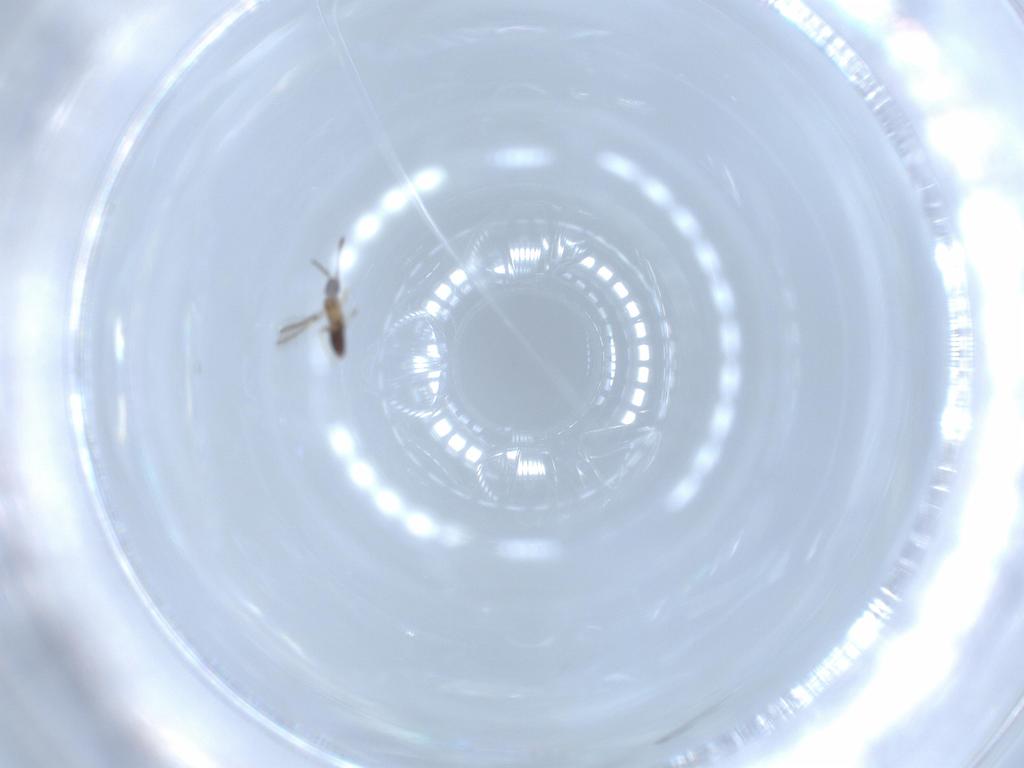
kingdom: Animalia
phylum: Arthropoda
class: Insecta
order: Hymenoptera
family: Mymaridae
